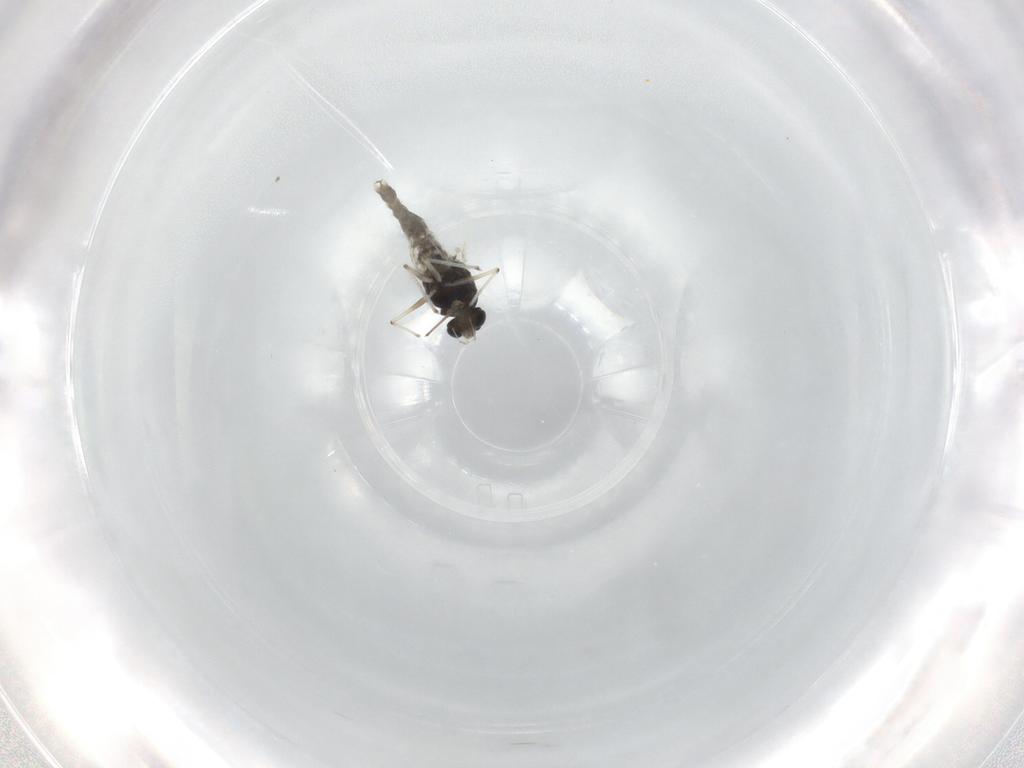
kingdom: Animalia
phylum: Arthropoda
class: Insecta
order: Diptera
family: Chironomidae
